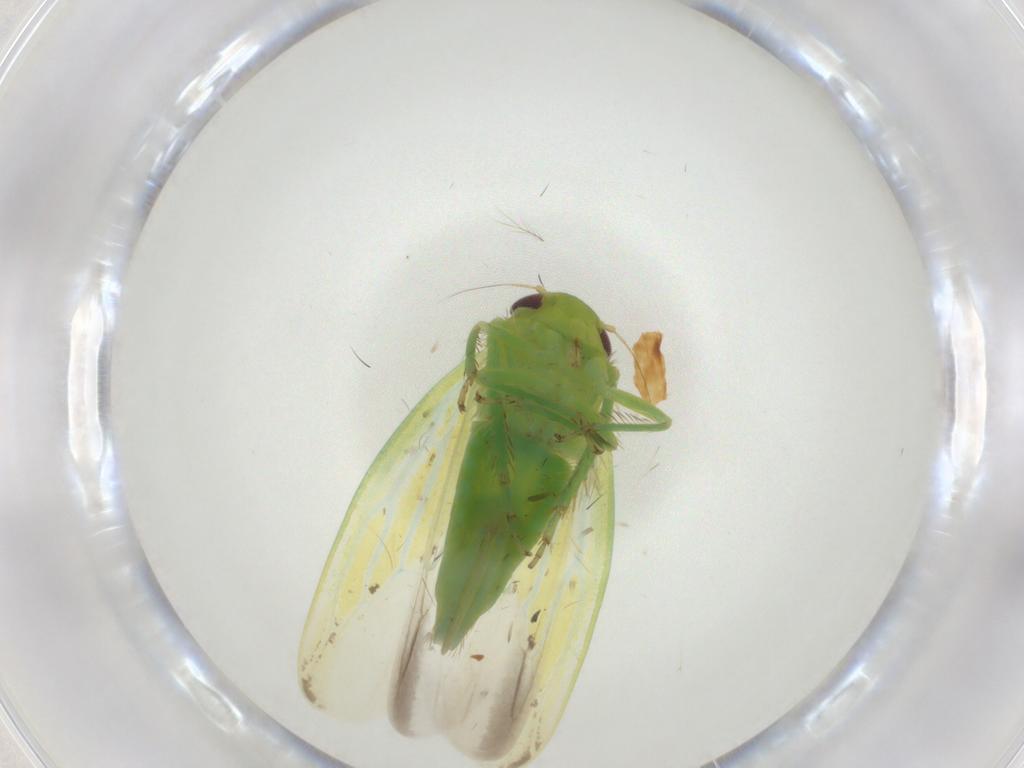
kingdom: Animalia
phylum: Arthropoda
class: Insecta
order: Hemiptera
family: Cicadellidae
